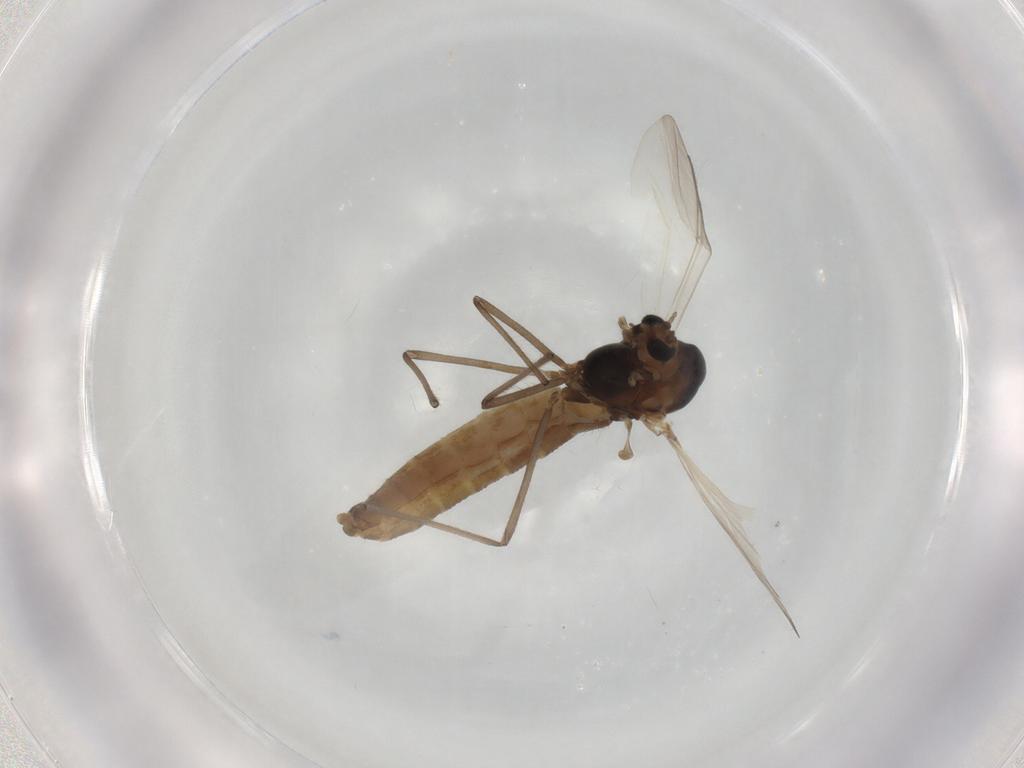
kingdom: Animalia
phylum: Arthropoda
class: Insecta
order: Diptera
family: Chironomidae
